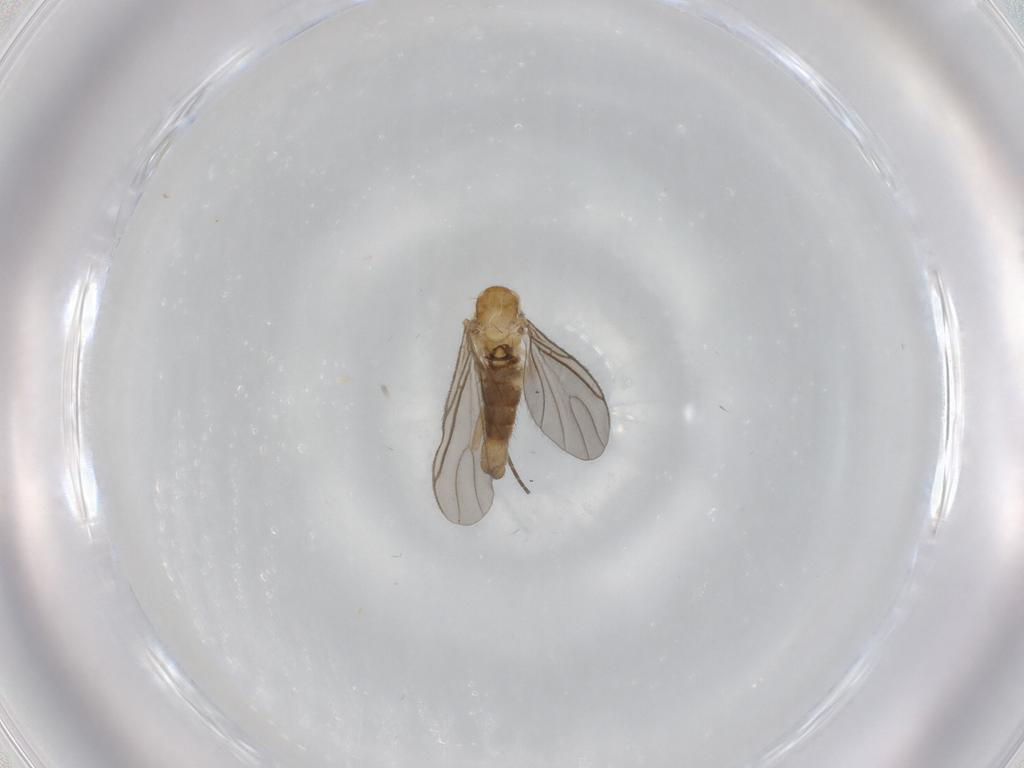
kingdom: Animalia
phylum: Arthropoda
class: Insecta
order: Diptera
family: Sciaridae
